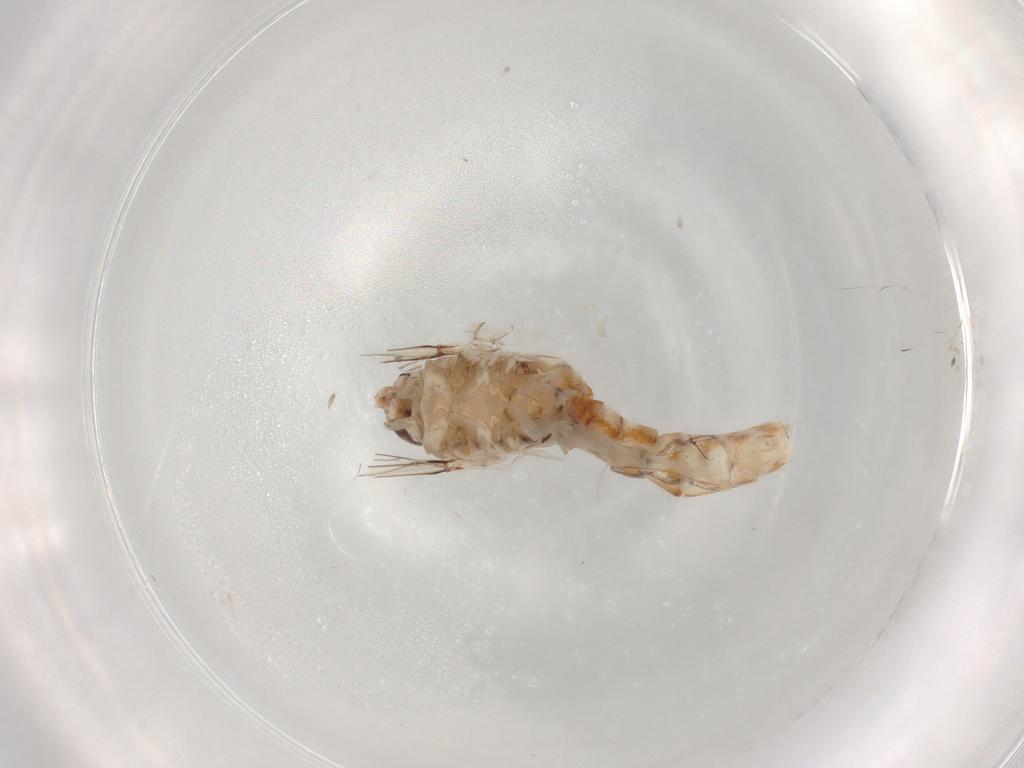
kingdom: Animalia
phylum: Arthropoda
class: Insecta
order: Ephemeroptera
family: Baetidae
